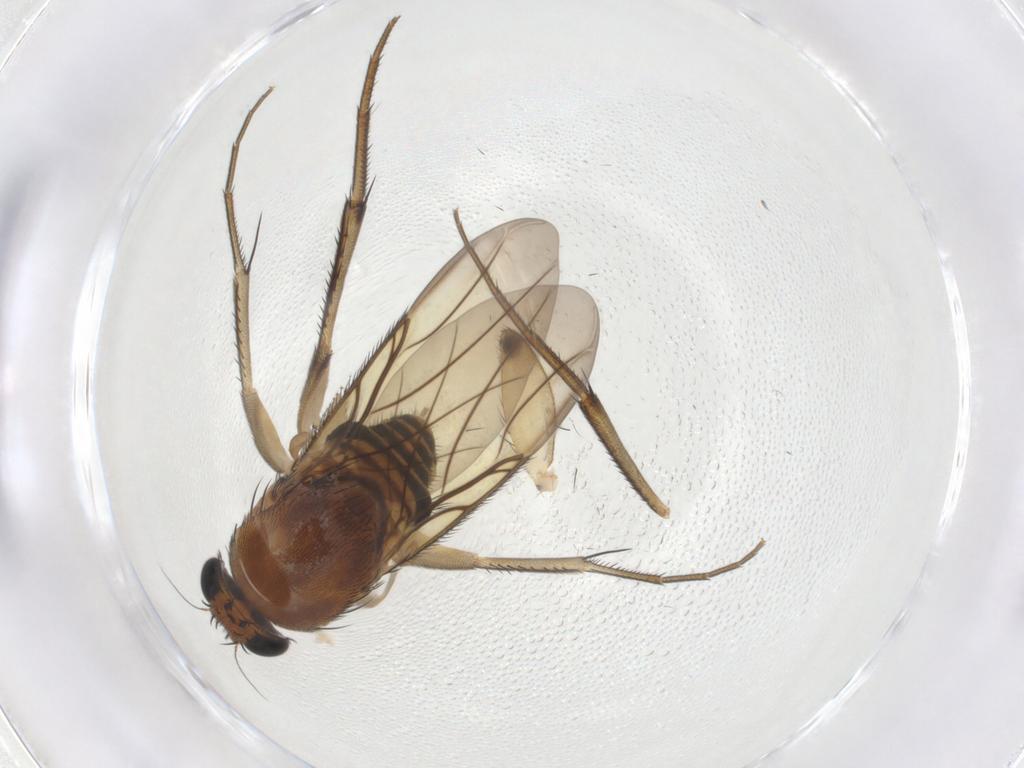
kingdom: Animalia
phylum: Arthropoda
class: Insecta
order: Diptera
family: Phoridae
